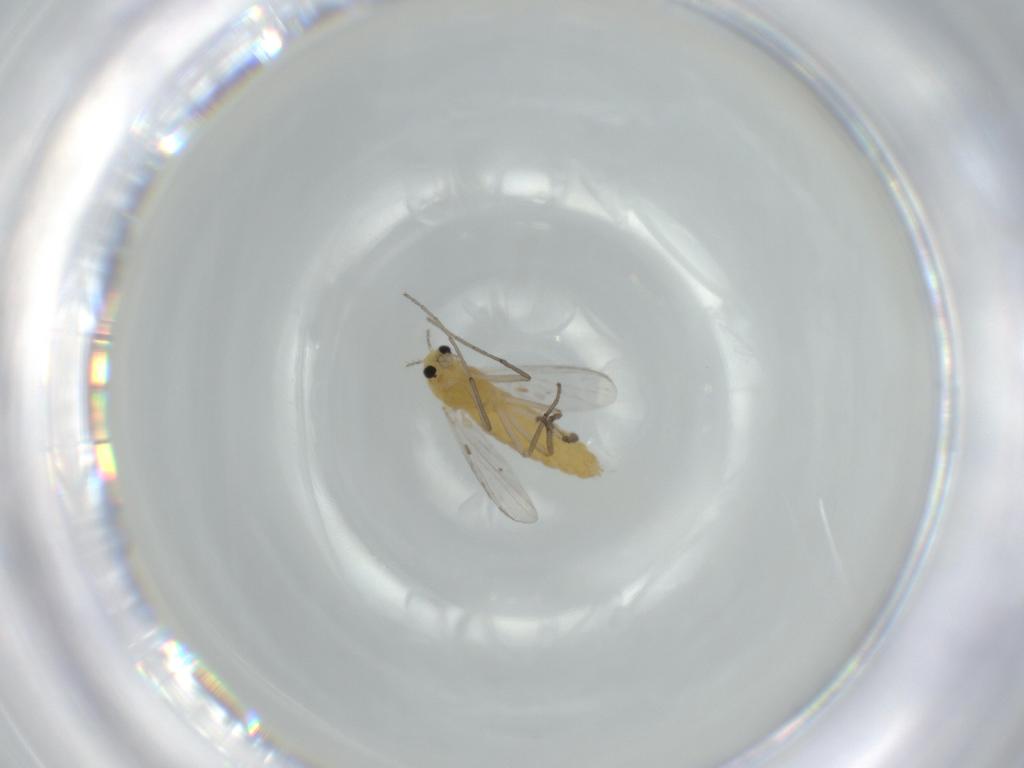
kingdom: Animalia
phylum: Arthropoda
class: Insecta
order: Diptera
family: Chironomidae
